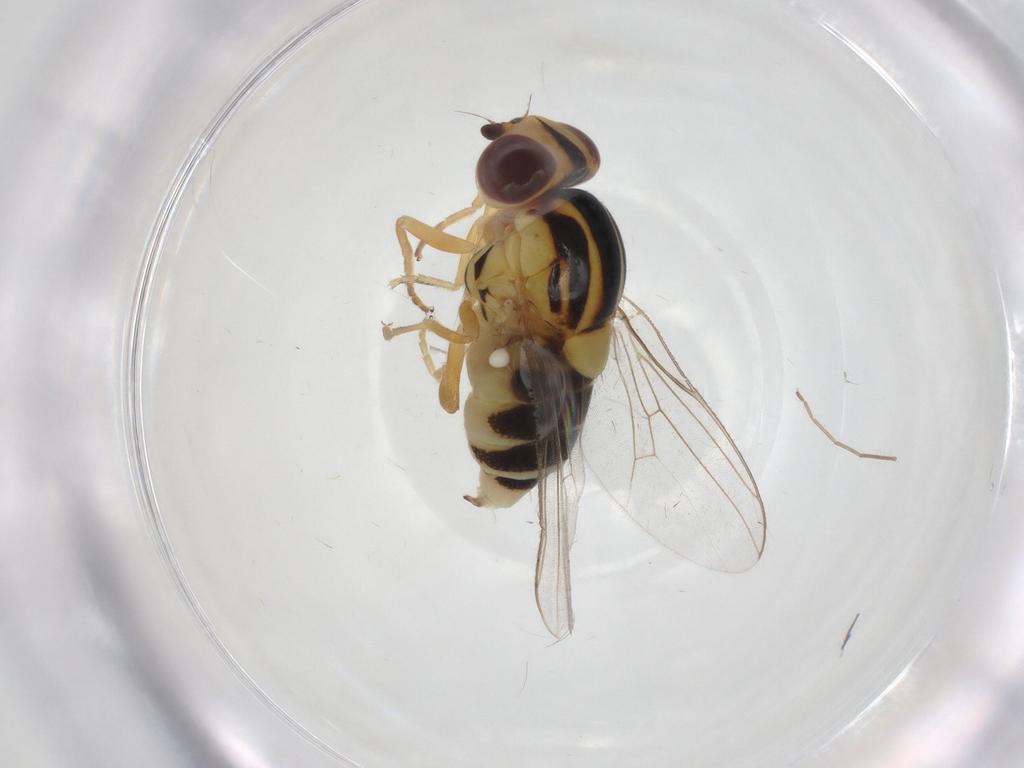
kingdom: Animalia
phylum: Arthropoda
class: Insecta
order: Diptera
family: Chloropidae
